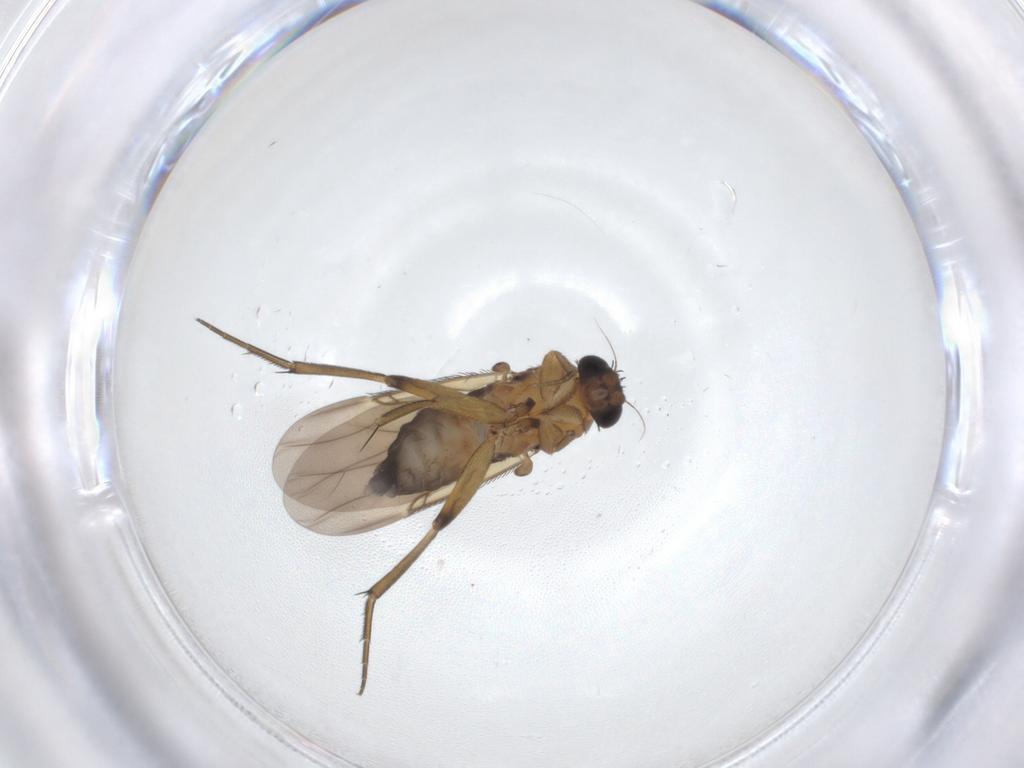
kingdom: Animalia
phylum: Arthropoda
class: Insecta
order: Diptera
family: Phoridae
